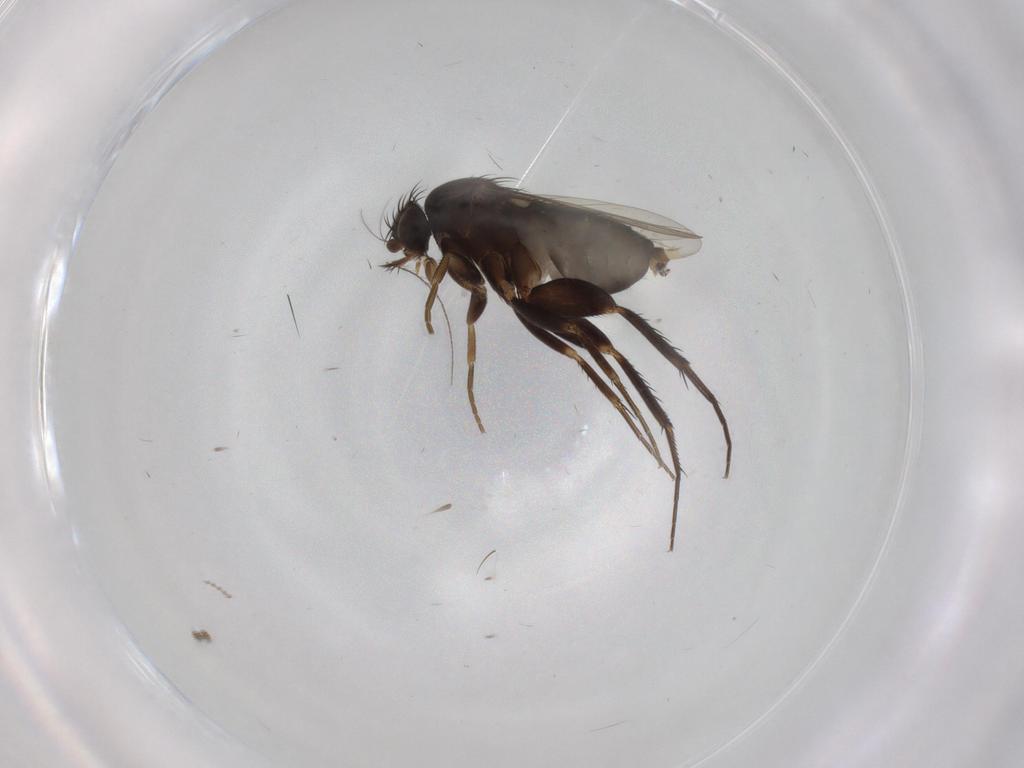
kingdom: Animalia
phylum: Arthropoda
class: Insecta
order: Diptera
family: Phoridae
